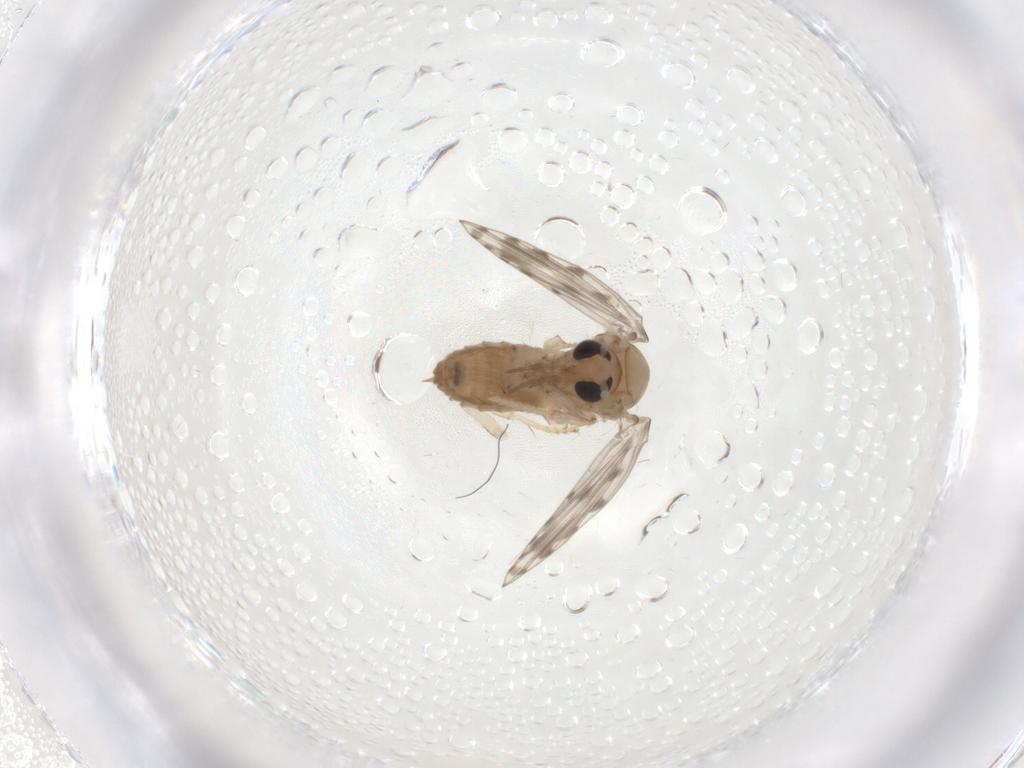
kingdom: Animalia
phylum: Arthropoda
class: Insecta
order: Diptera
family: Psychodidae
